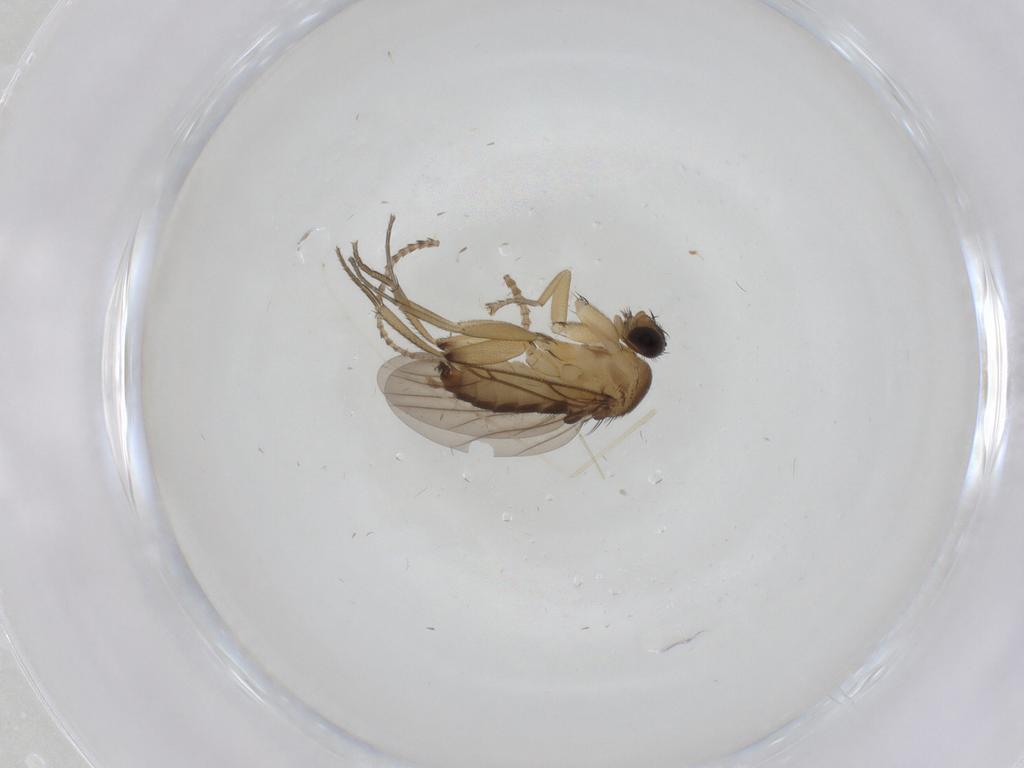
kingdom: Animalia
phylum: Arthropoda
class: Insecta
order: Diptera
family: Phoridae
